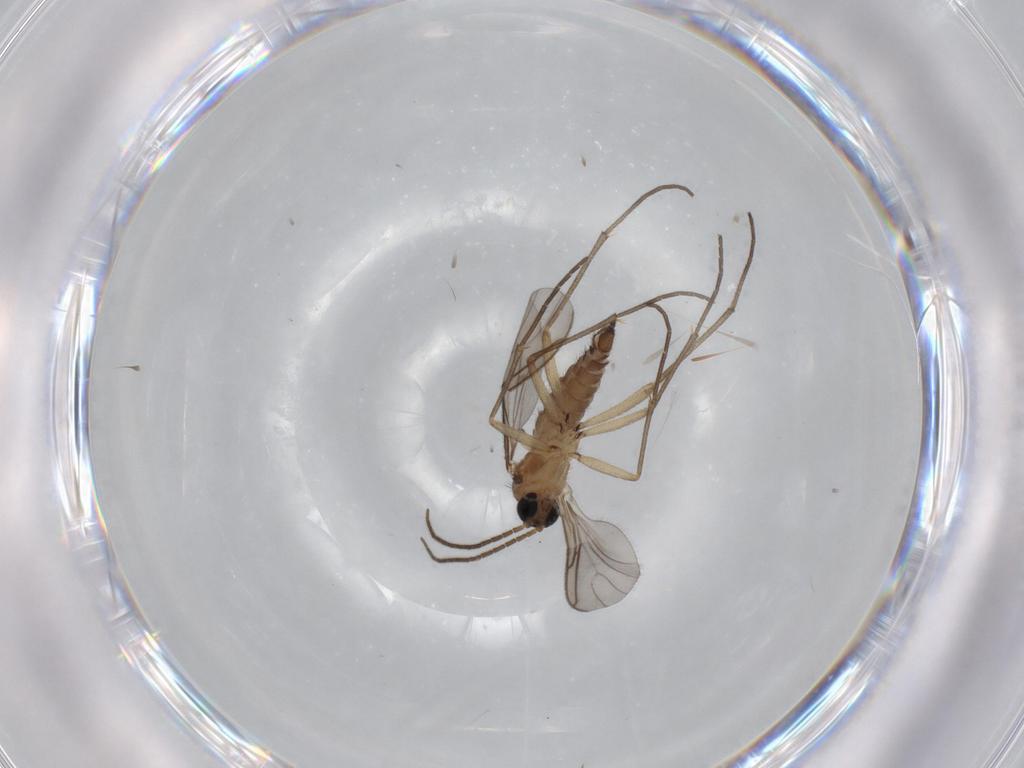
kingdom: Animalia
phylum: Arthropoda
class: Insecta
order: Diptera
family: Sciaridae
